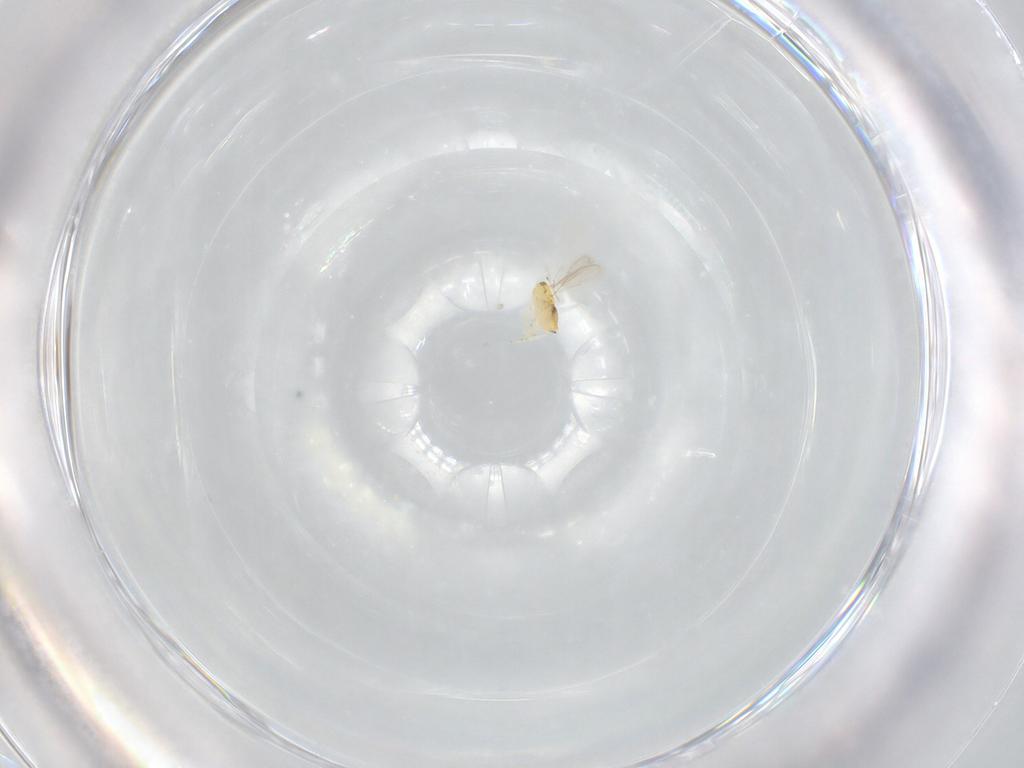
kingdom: Animalia
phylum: Arthropoda
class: Insecta
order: Hymenoptera
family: Aphelinidae
